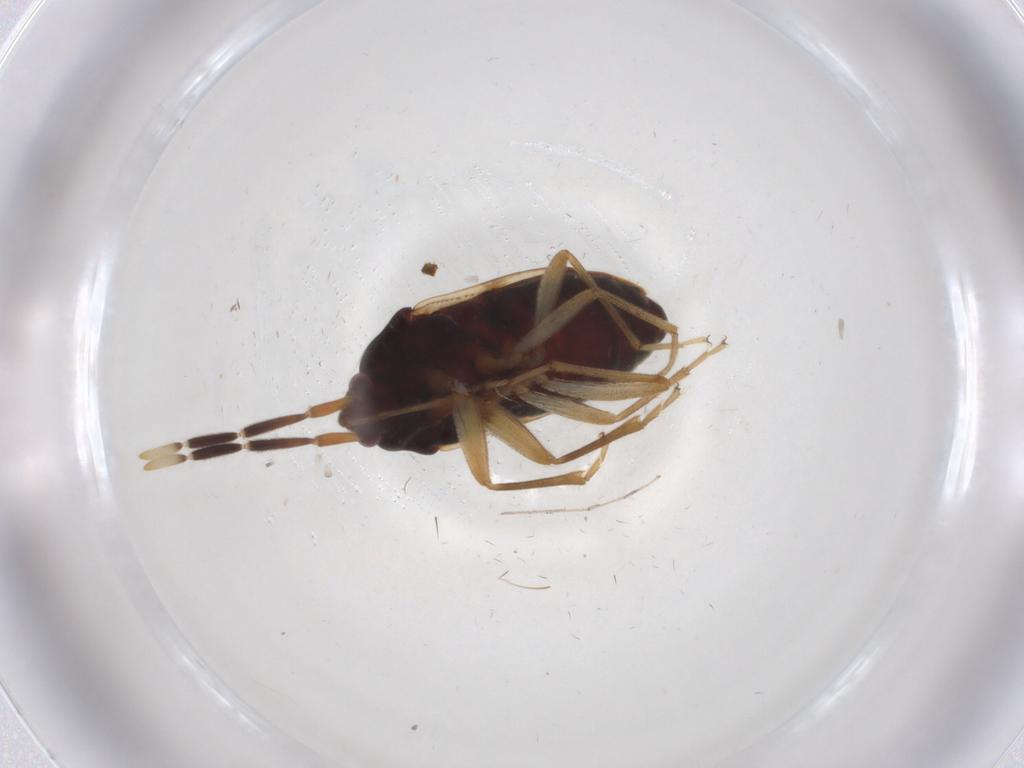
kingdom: Animalia
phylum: Arthropoda
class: Insecta
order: Hemiptera
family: Rhyparochromidae
